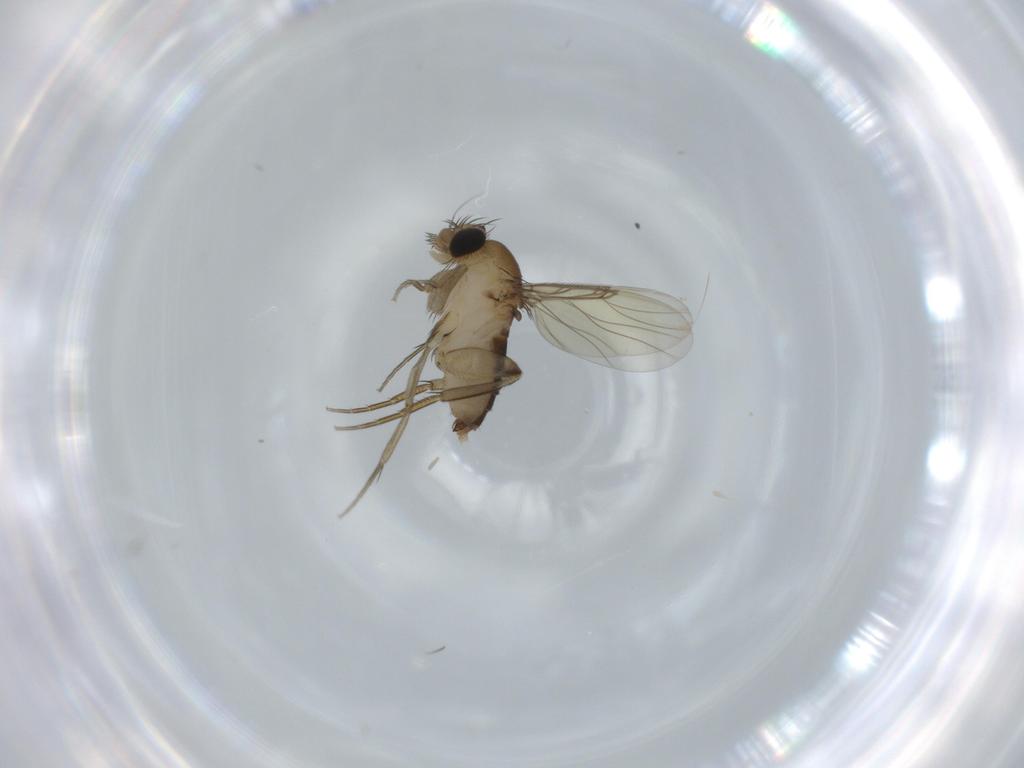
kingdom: Animalia
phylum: Arthropoda
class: Insecta
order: Diptera
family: Phoridae
